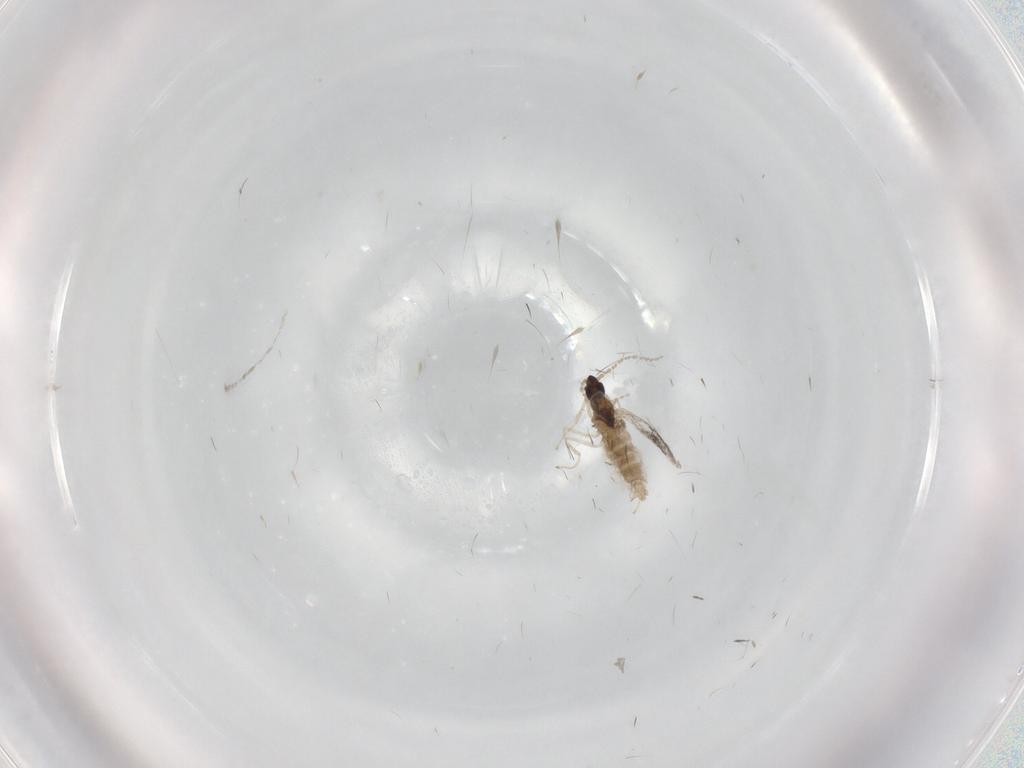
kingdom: Animalia
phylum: Arthropoda
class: Insecta
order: Diptera
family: Cecidomyiidae
